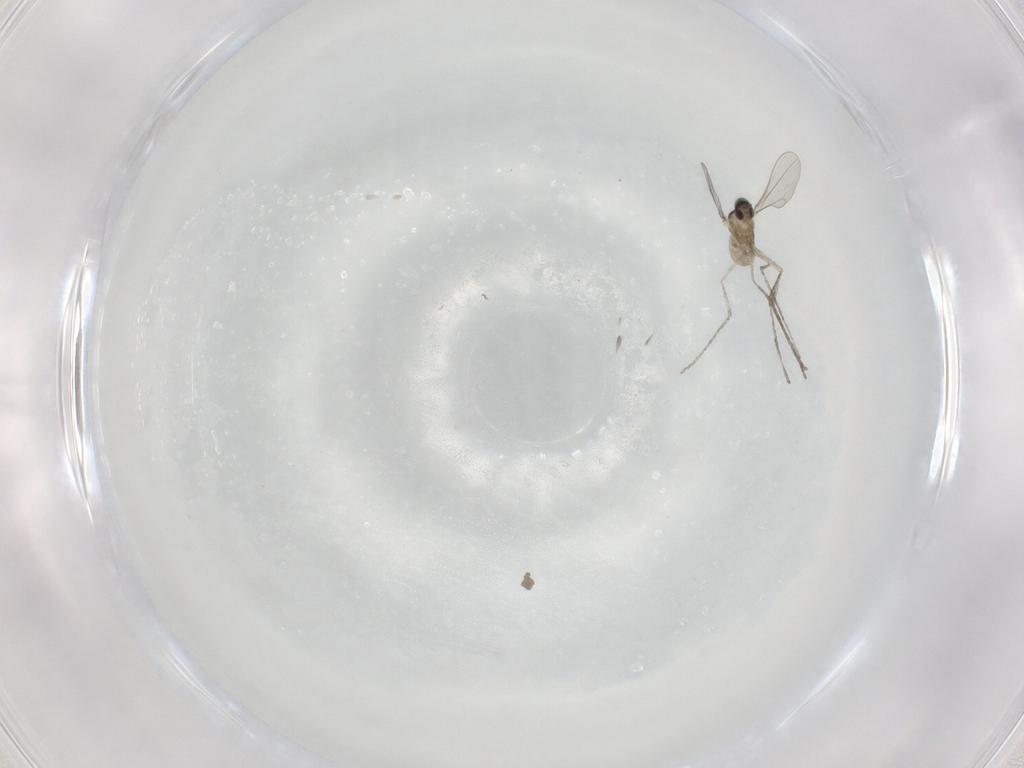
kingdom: Animalia
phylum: Arthropoda
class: Insecta
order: Diptera
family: Cecidomyiidae
